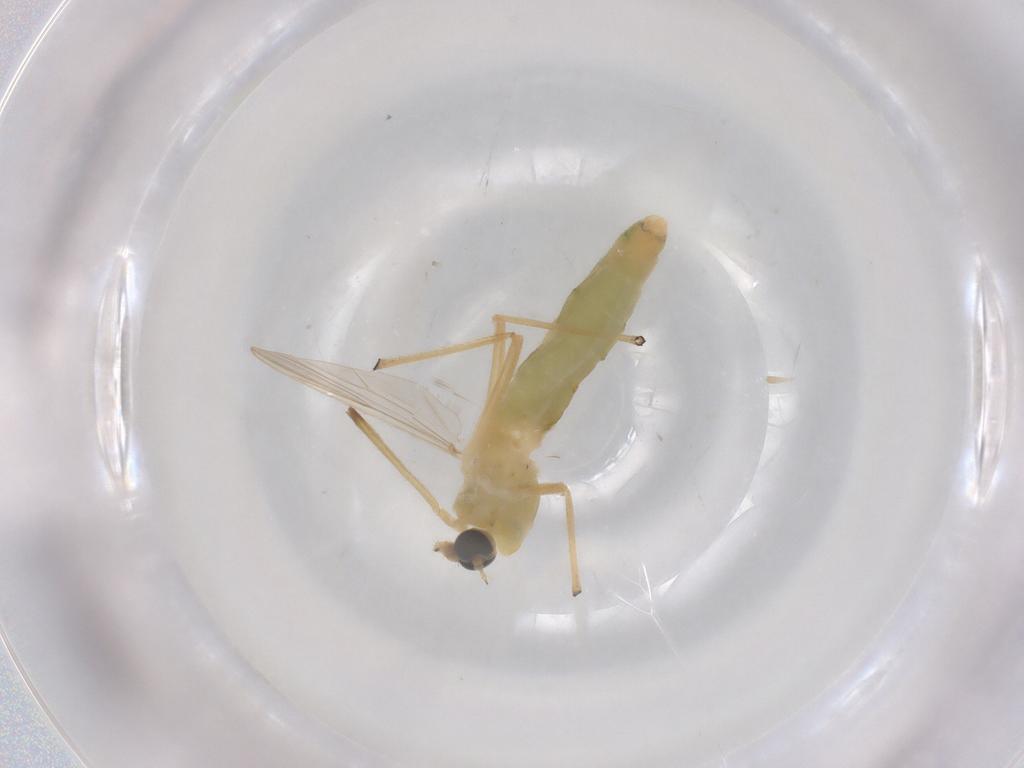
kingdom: Animalia
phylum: Arthropoda
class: Insecta
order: Diptera
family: Chironomidae
